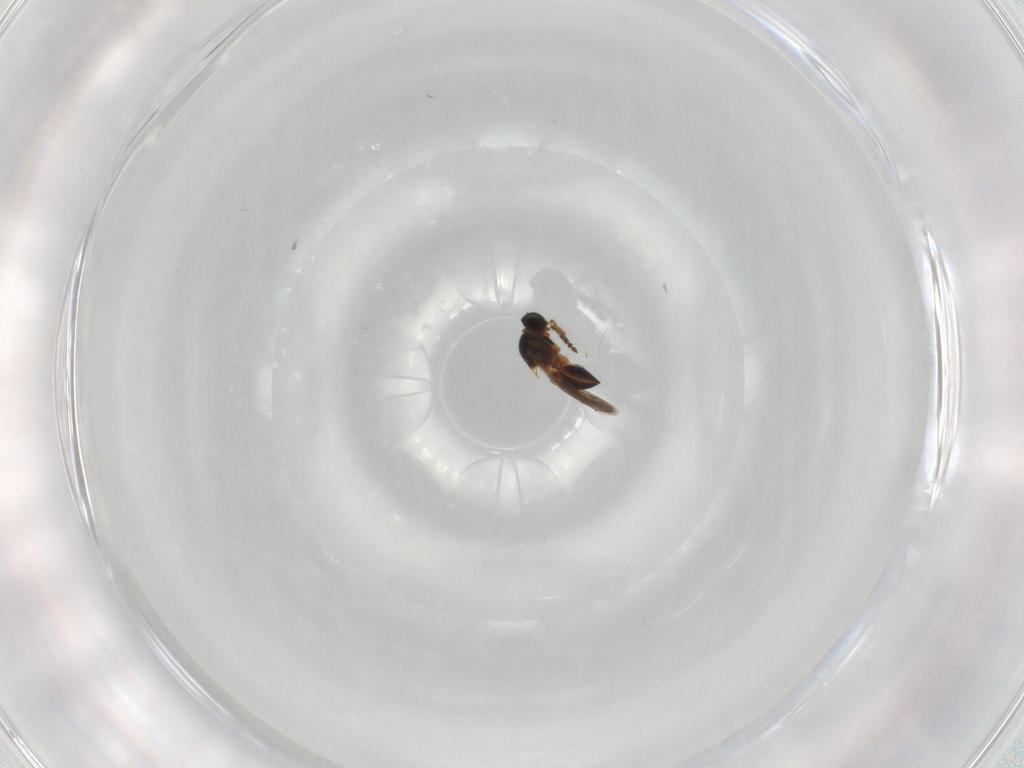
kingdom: Animalia
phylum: Arthropoda
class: Insecta
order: Hymenoptera
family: Platygastridae
